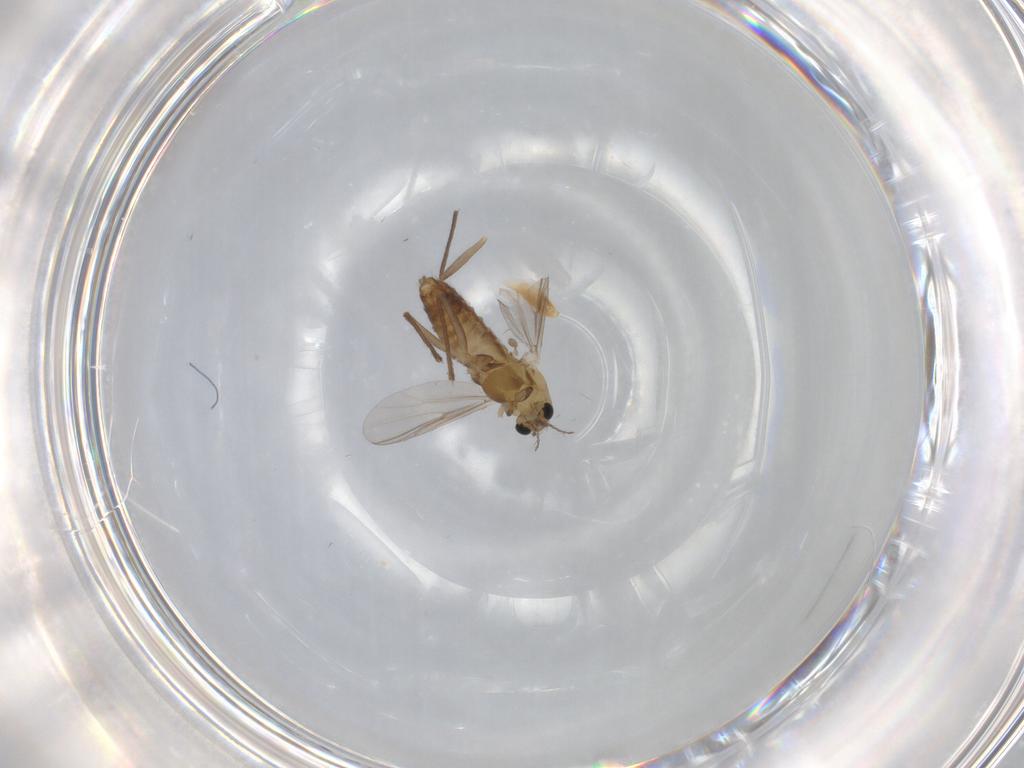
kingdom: Animalia
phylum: Arthropoda
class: Insecta
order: Diptera
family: Chironomidae
